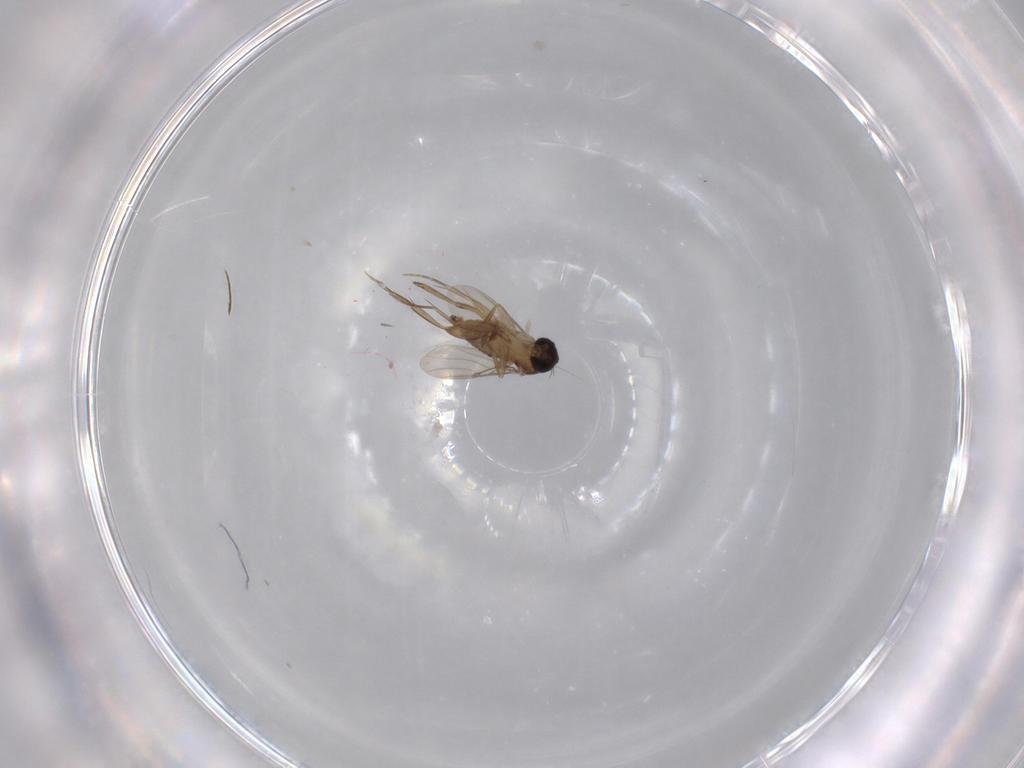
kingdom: Animalia
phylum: Arthropoda
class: Insecta
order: Diptera
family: Phoridae
